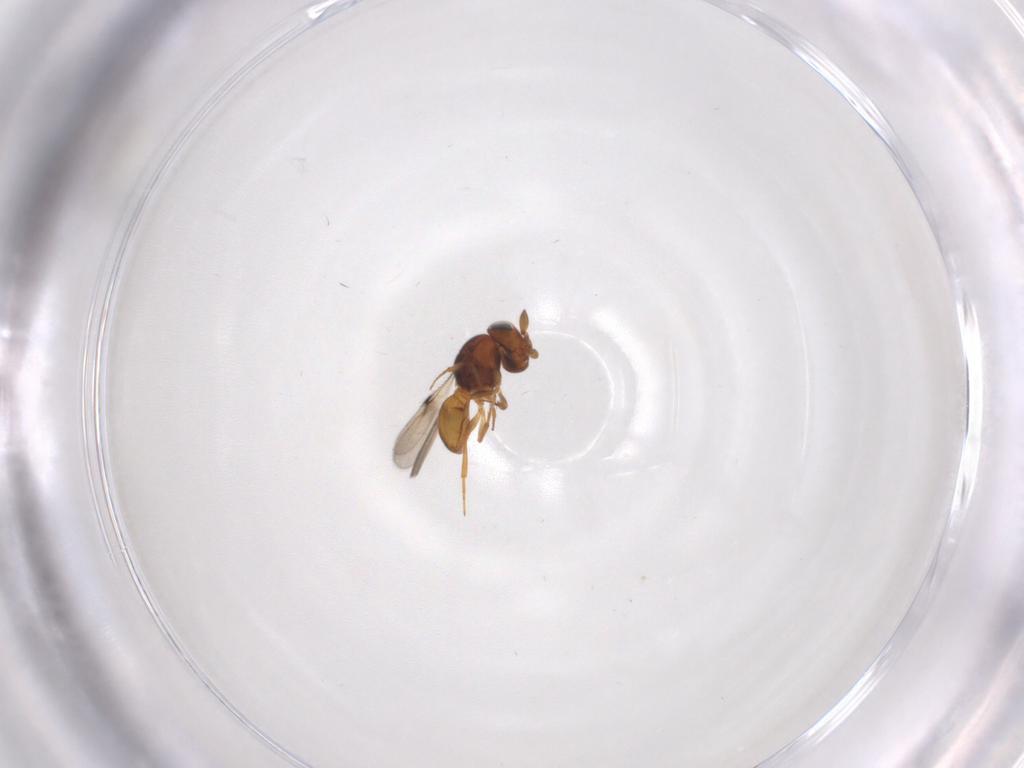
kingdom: Animalia
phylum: Arthropoda
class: Insecta
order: Hymenoptera
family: Scelionidae
